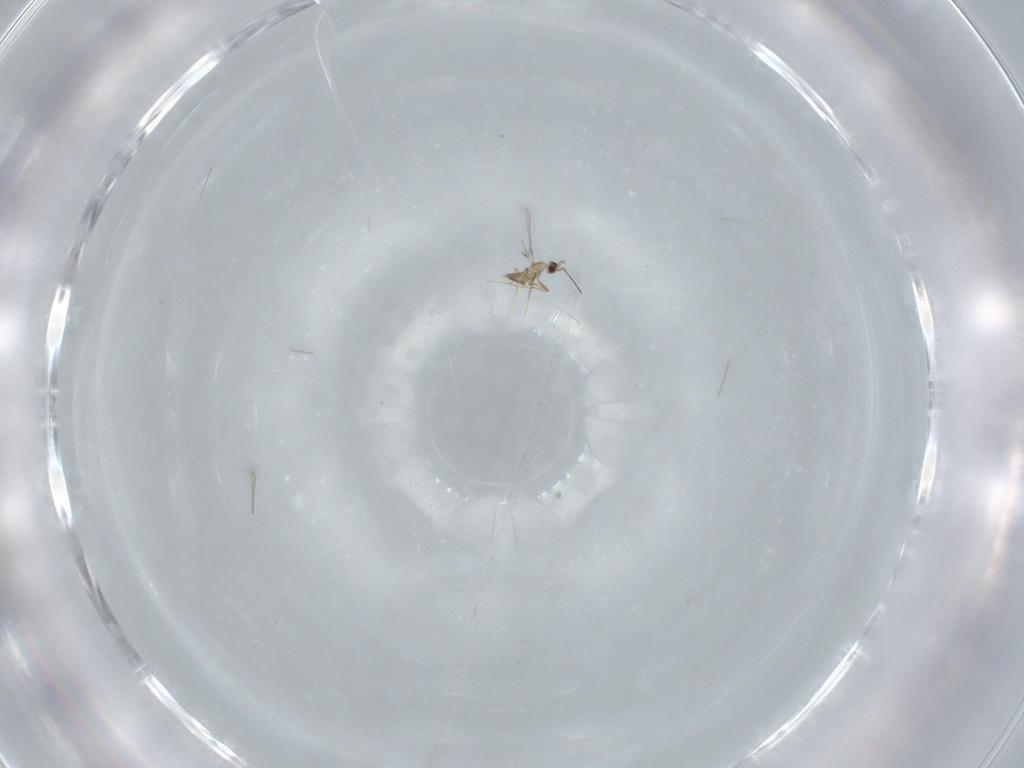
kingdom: Animalia
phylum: Arthropoda
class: Insecta
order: Hymenoptera
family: Mymaridae
